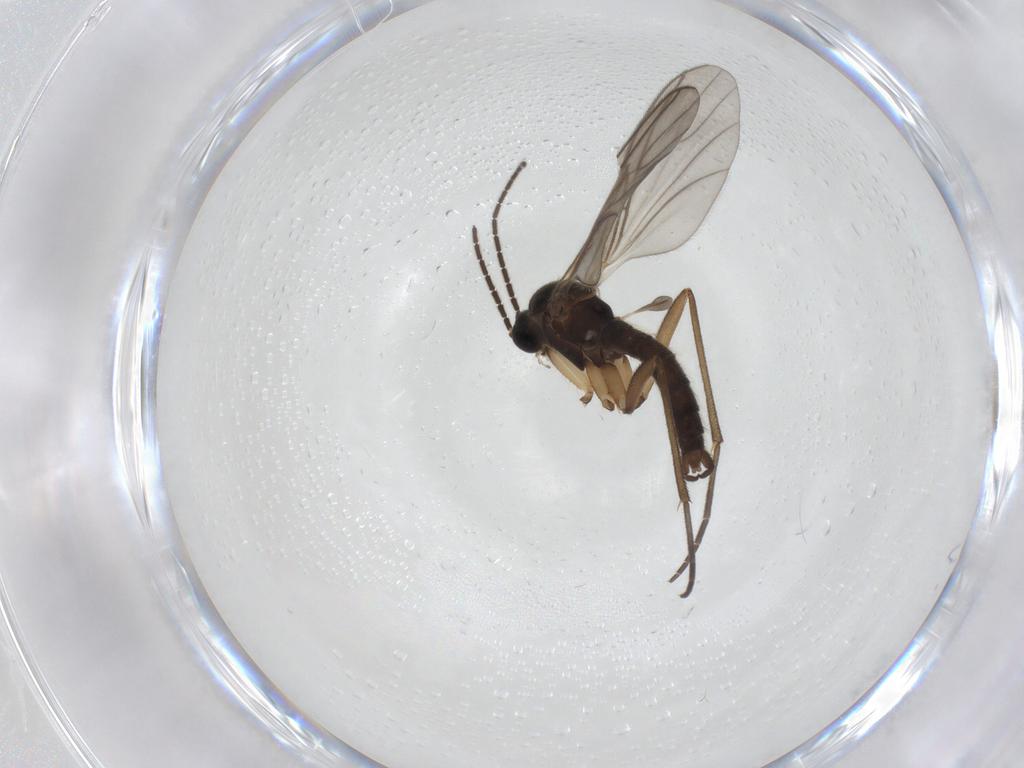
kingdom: Animalia
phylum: Arthropoda
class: Insecta
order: Diptera
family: Sciaridae
